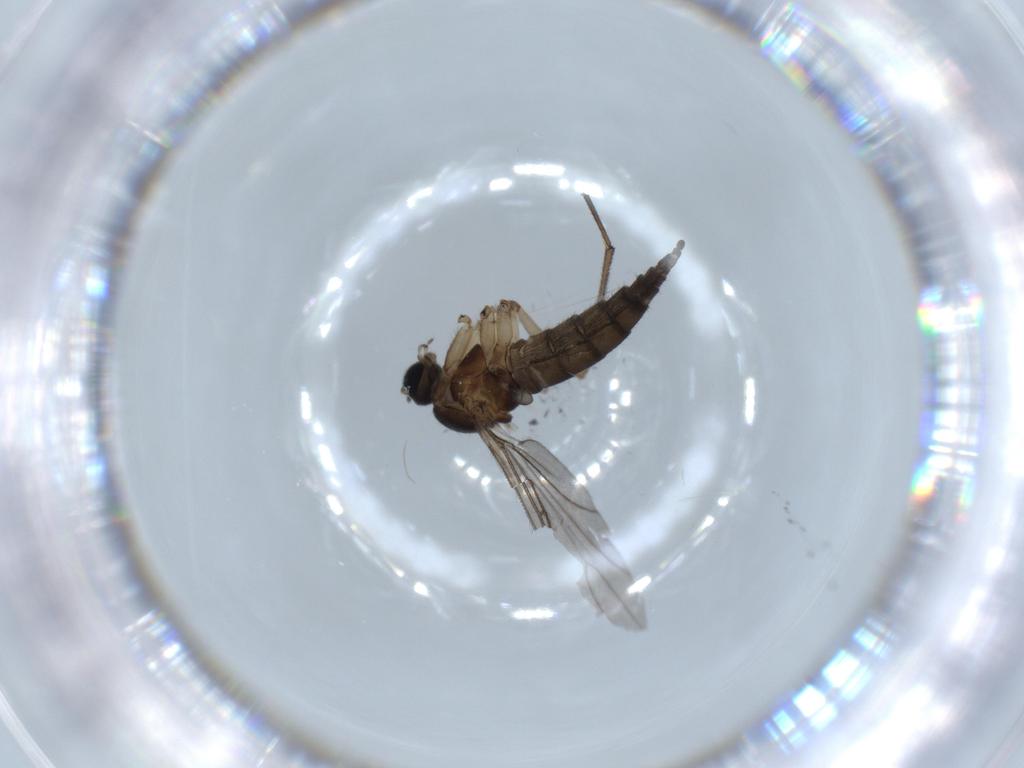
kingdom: Animalia
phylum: Arthropoda
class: Insecta
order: Diptera
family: Sciaridae
